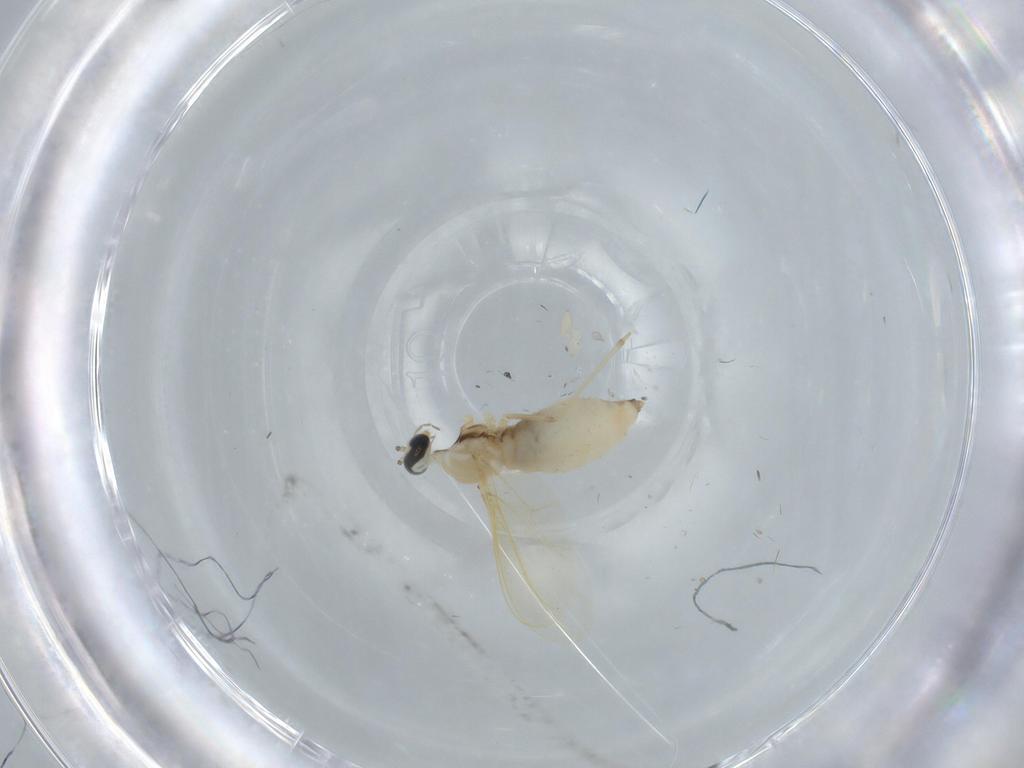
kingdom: Animalia
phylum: Arthropoda
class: Insecta
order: Diptera
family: Cecidomyiidae
